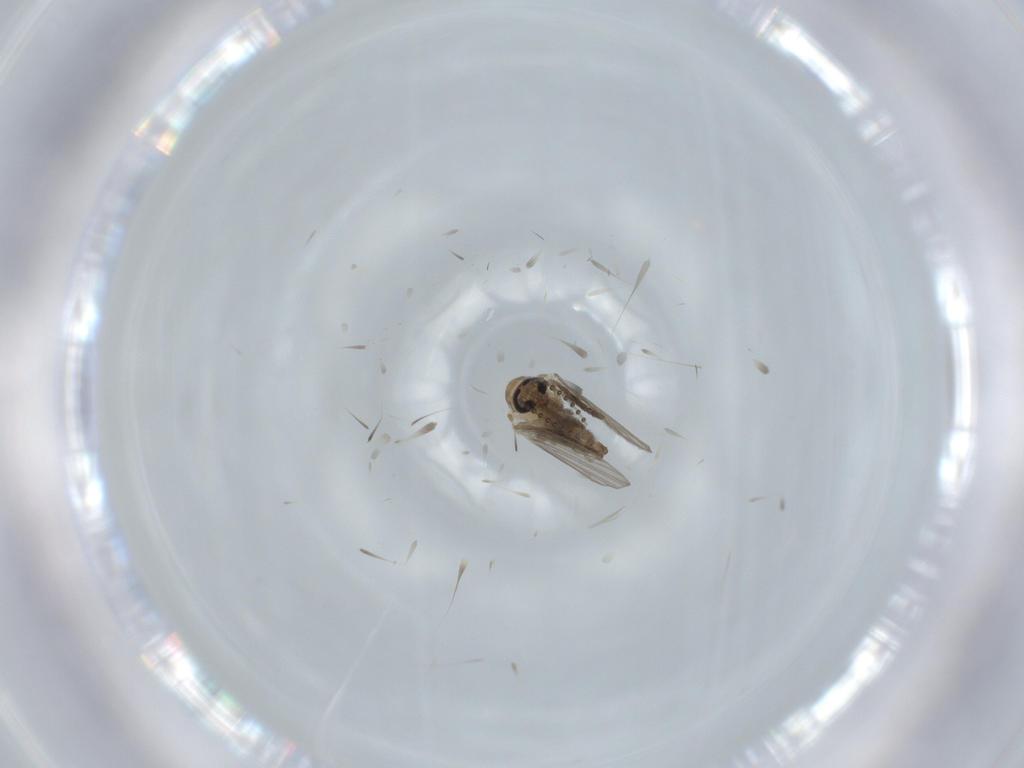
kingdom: Animalia
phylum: Arthropoda
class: Insecta
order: Diptera
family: Psychodidae
